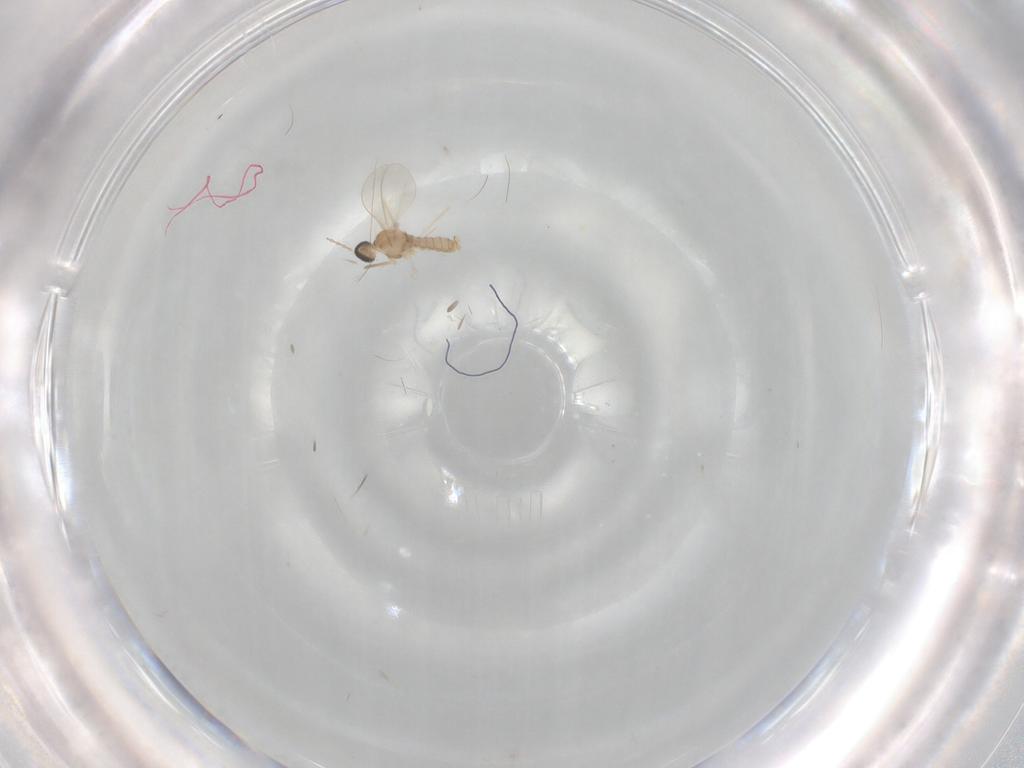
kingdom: Animalia
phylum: Arthropoda
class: Insecta
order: Diptera
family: Cecidomyiidae
